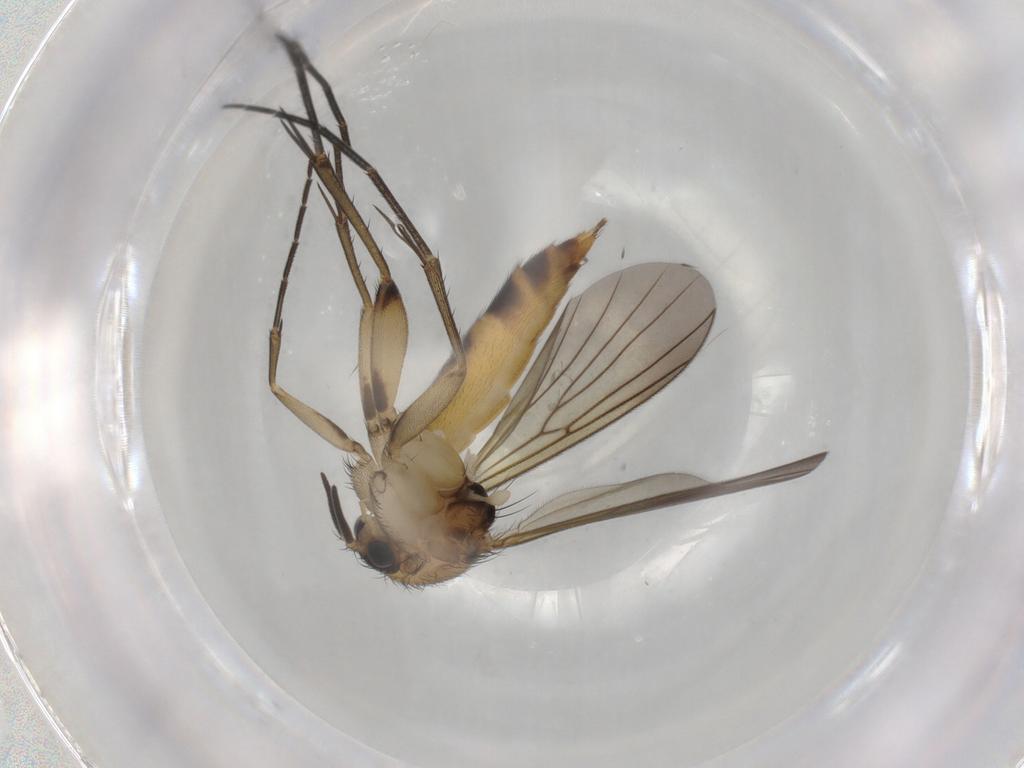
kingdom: Animalia
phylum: Arthropoda
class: Insecta
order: Diptera
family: Mycetophilidae
